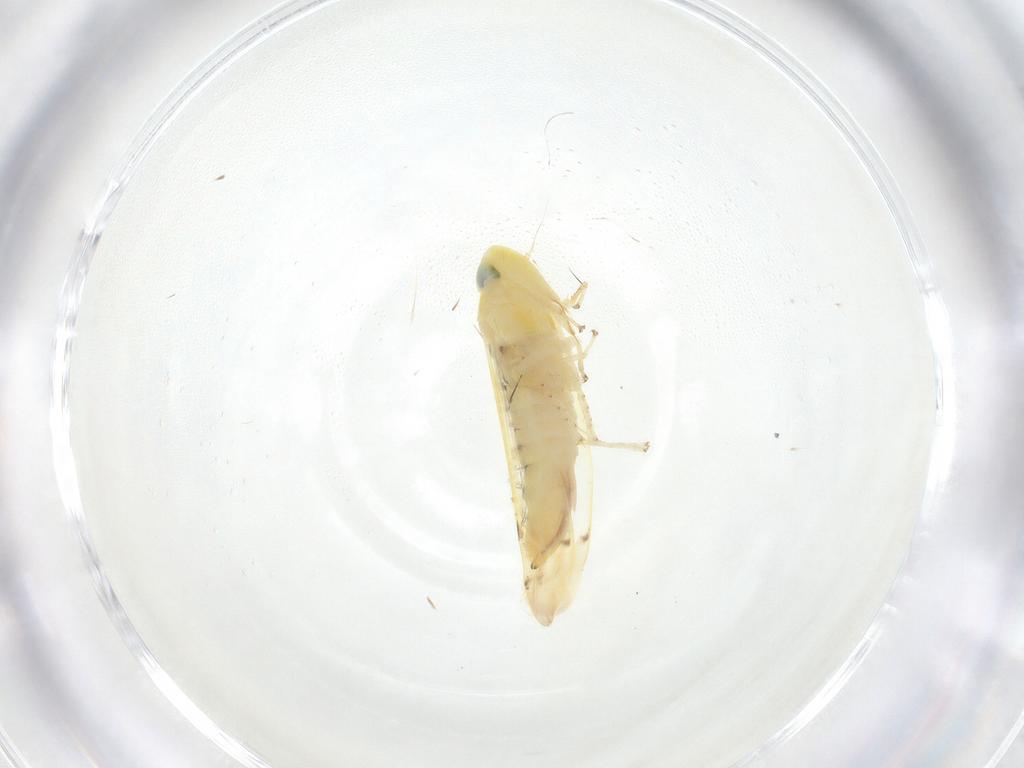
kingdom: Animalia
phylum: Arthropoda
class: Insecta
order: Hemiptera
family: Cicadellidae
